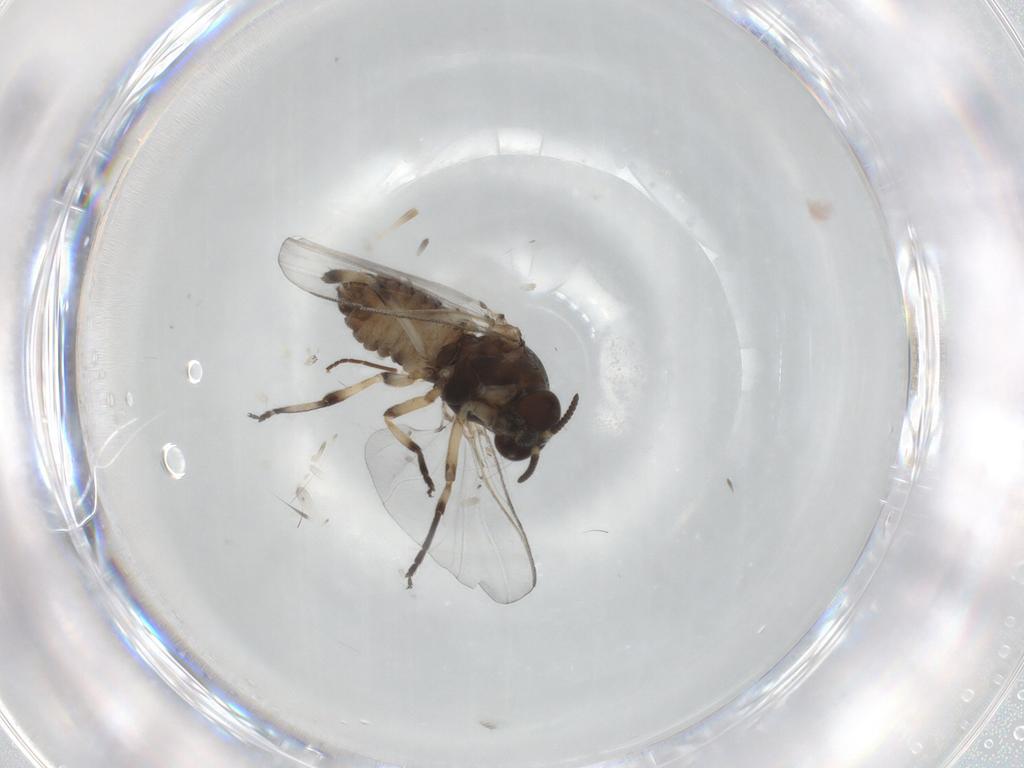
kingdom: Animalia
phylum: Arthropoda
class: Insecta
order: Diptera
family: Simuliidae
